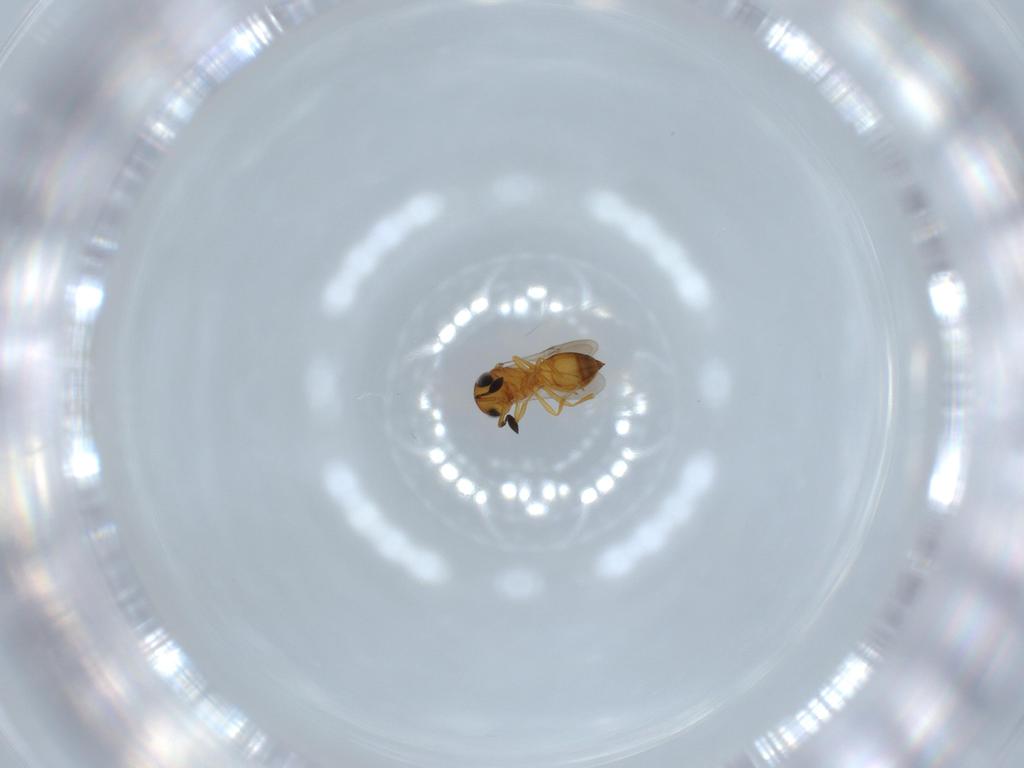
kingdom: Animalia
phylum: Arthropoda
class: Insecta
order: Hymenoptera
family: Scelionidae
